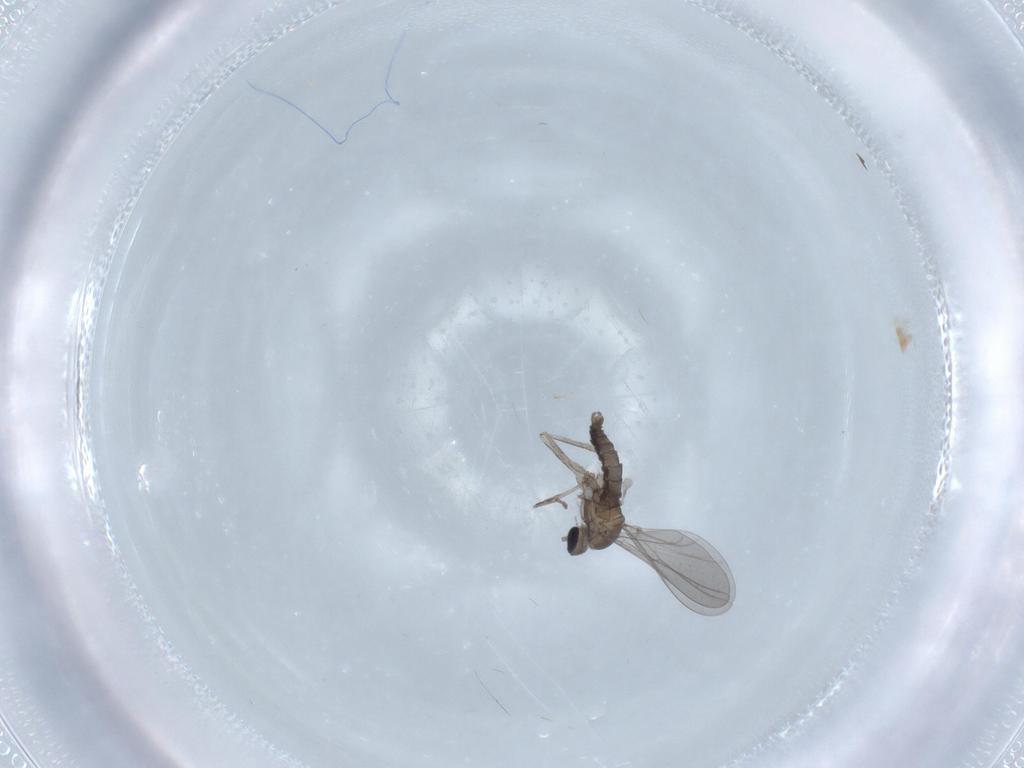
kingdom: Animalia
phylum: Arthropoda
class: Insecta
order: Diptera
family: Cecidomyiidae
